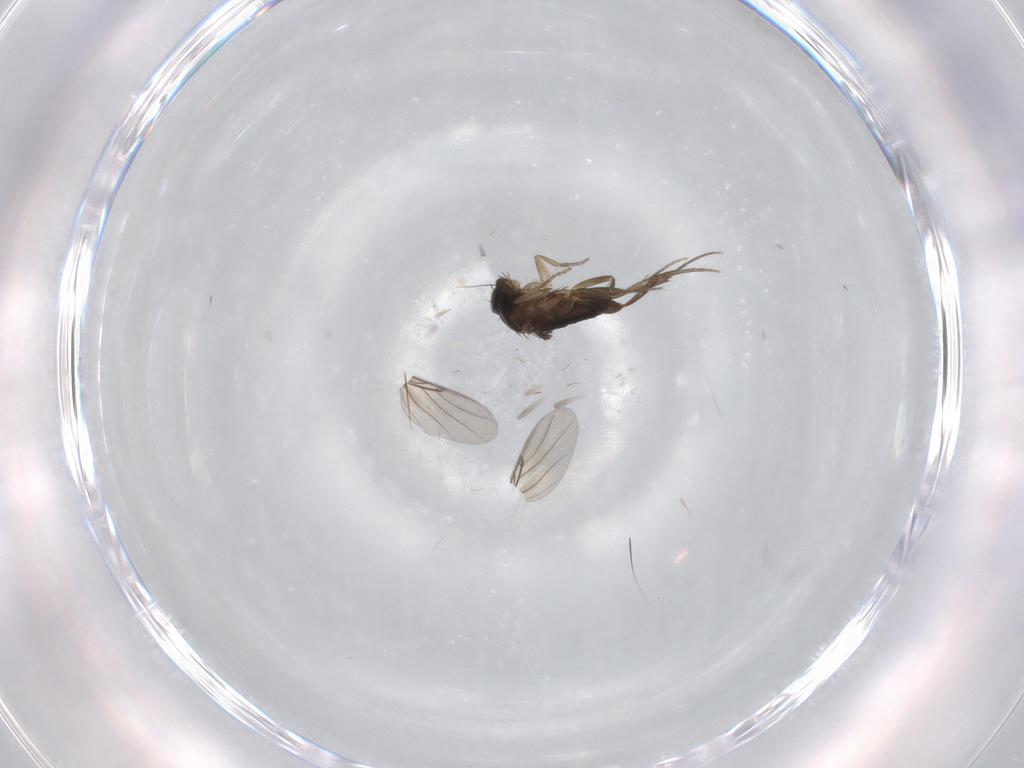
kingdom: Animalia
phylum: Arthropoda
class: Insecta
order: Diptera
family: Phoridae
